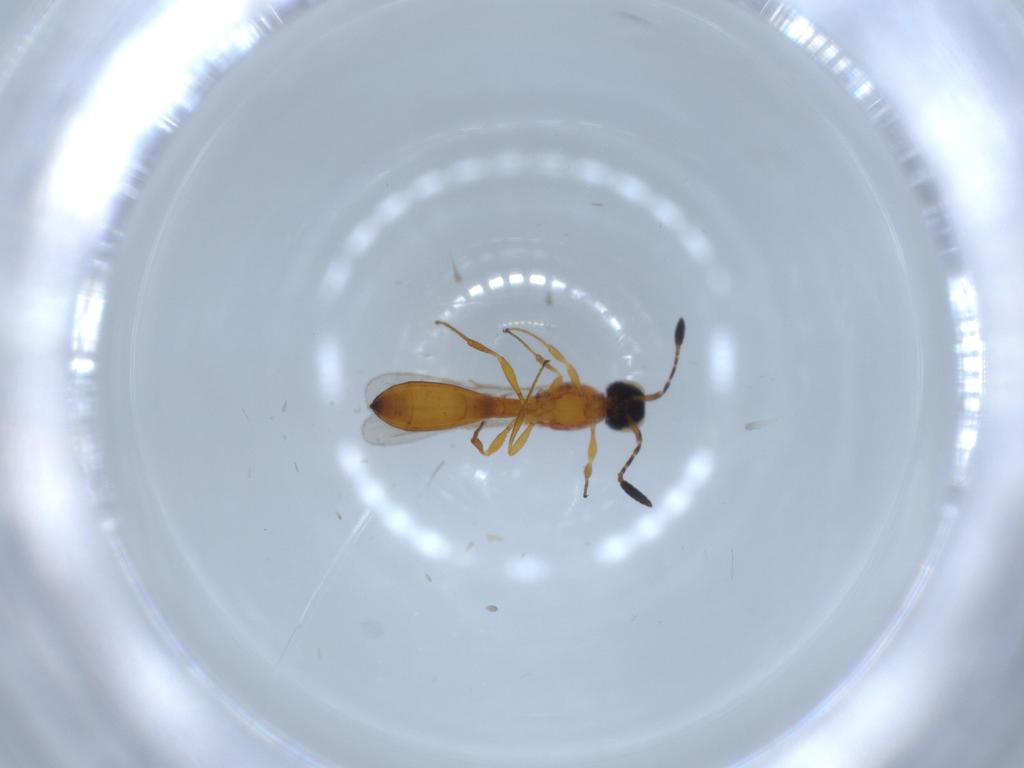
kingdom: Animalia
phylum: Arthropoda
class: Insecta
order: Hymenoptera
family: Scelionidae
